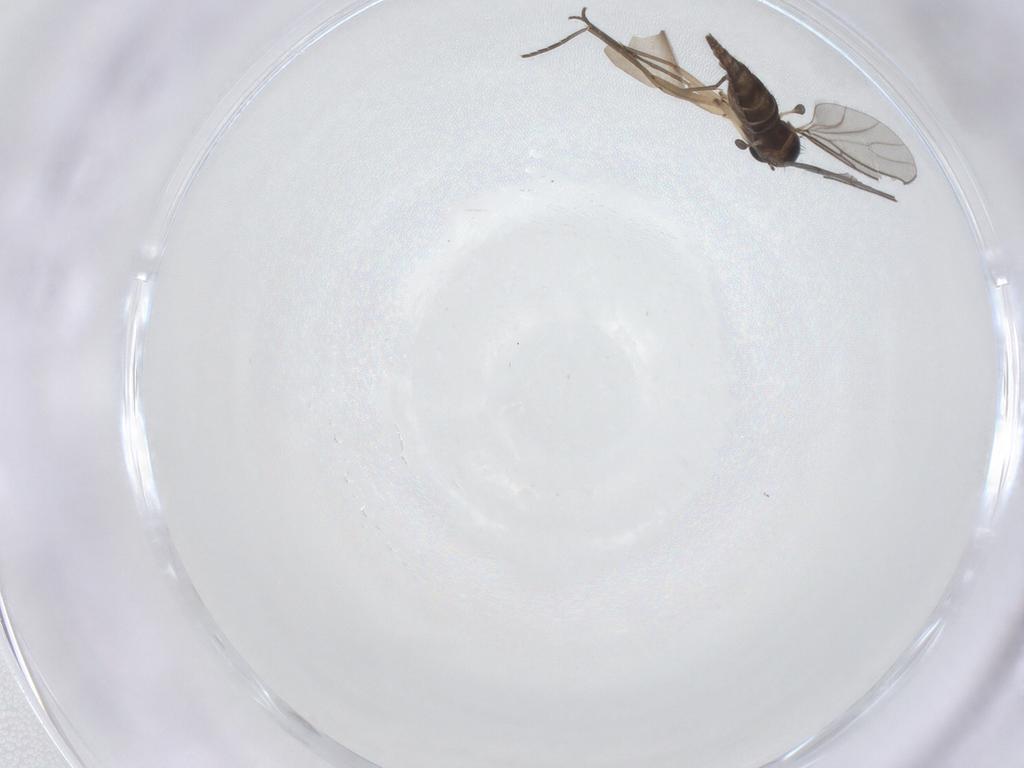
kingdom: Animalia
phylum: Arthropoda
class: Insecta
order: Diptera
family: Sciaridae
